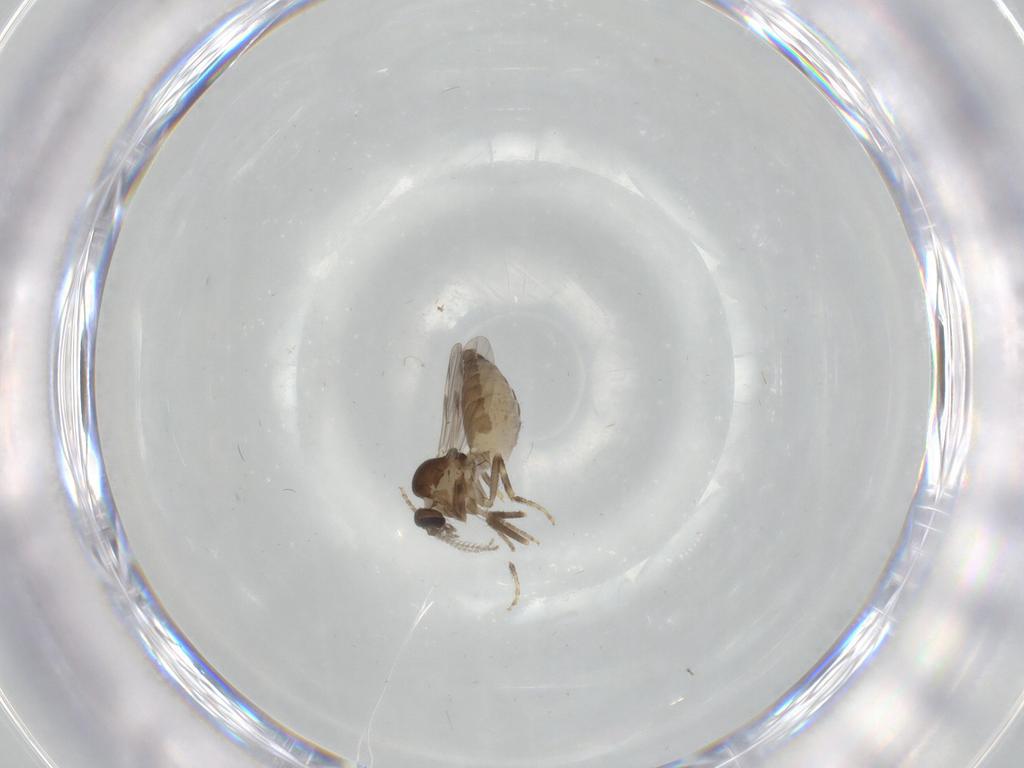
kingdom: Animalia
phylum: Arthropoda
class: Insecta
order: Diptera
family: Ceratopogonidae
